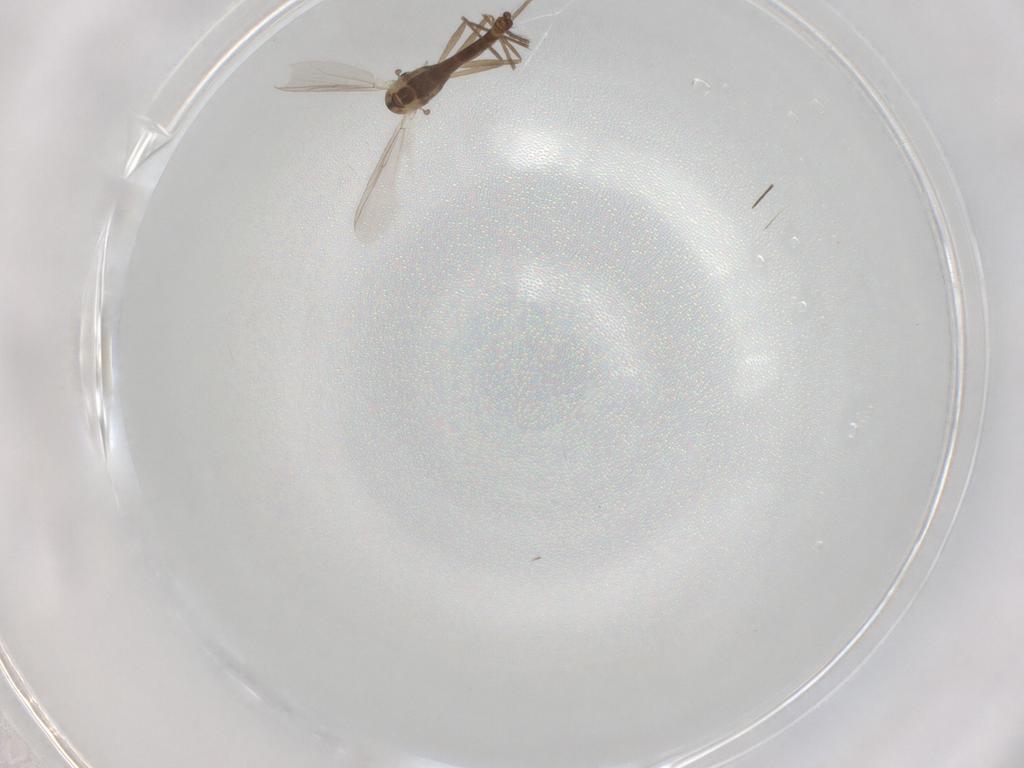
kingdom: Animalia
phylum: Arthropoda
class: Insecta
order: Diptera
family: Chironomidae
